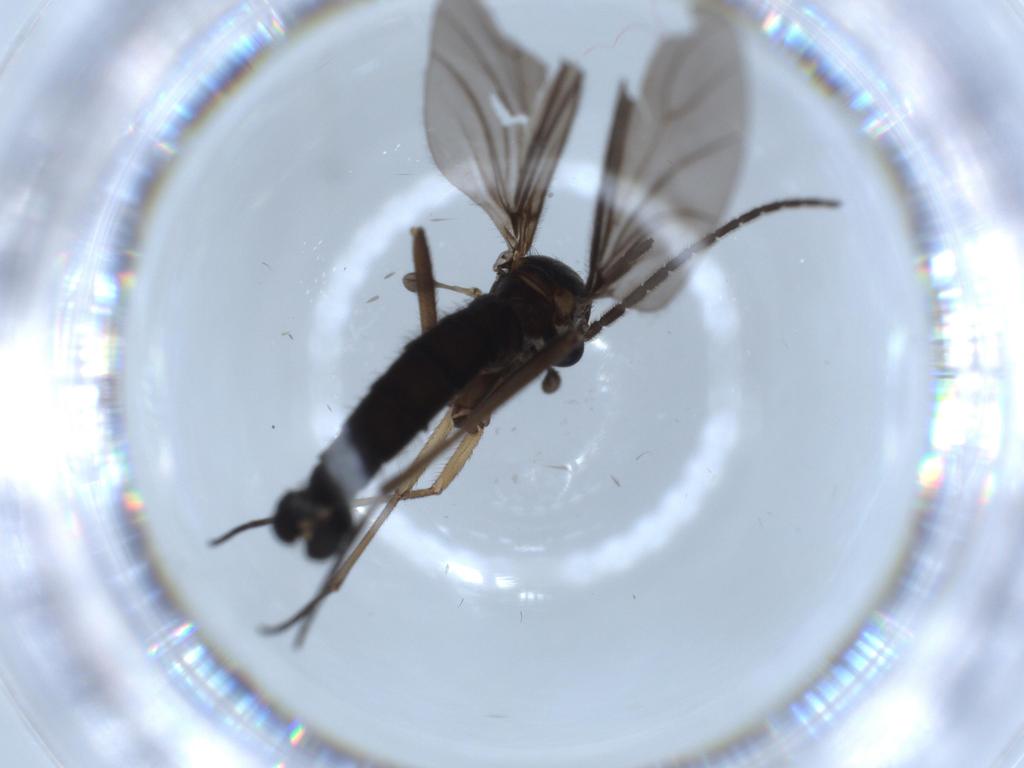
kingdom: Animalia
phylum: Arthropoda
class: Insecta
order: Diptera
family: Sciaridae
